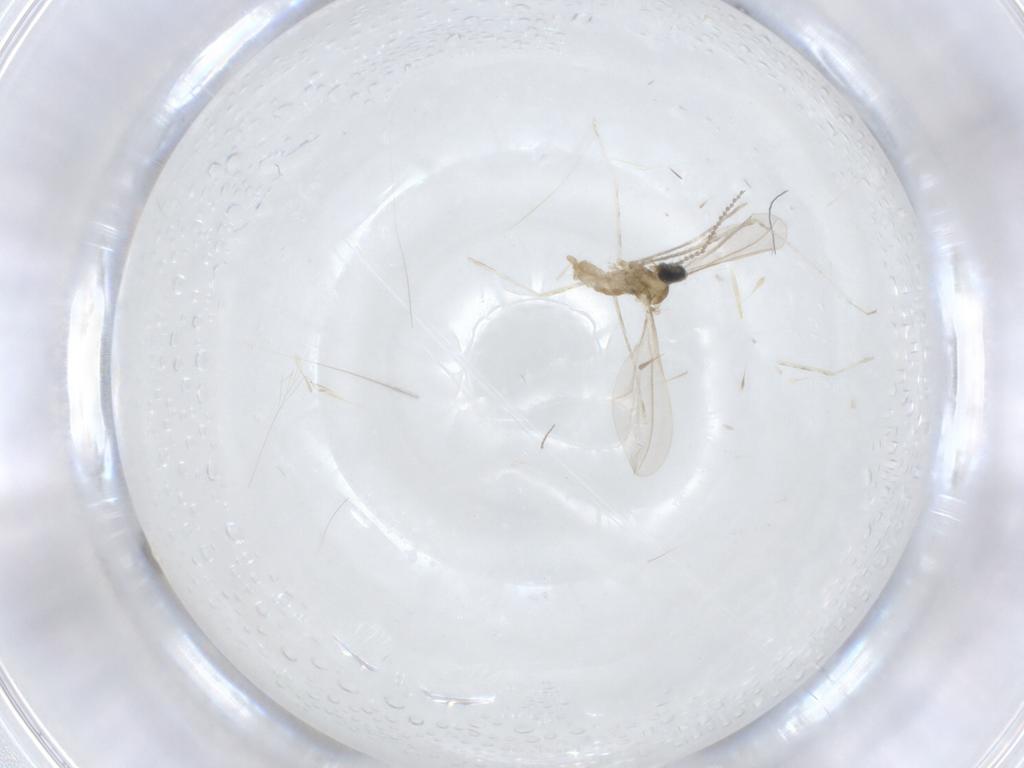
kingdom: Animalia
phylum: Arthropoda
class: Insecta
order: Diptera
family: Cecidomyiidae
